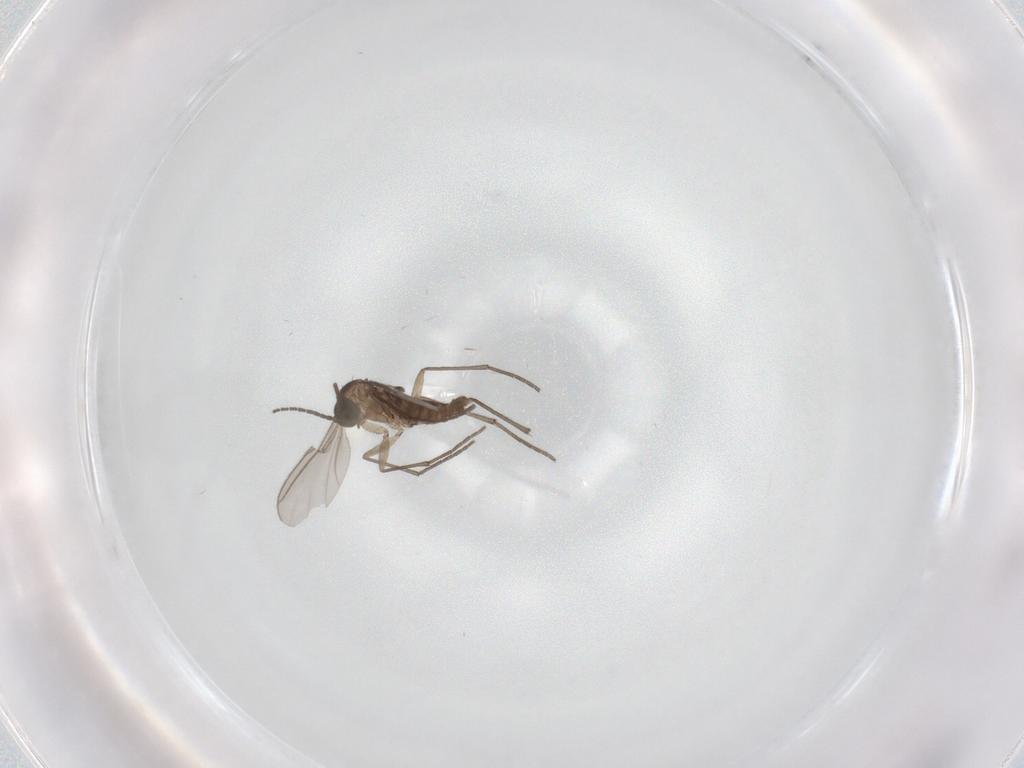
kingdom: Animalia
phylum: Arthropoda
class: Insecta
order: Diptera
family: Sciaridae
